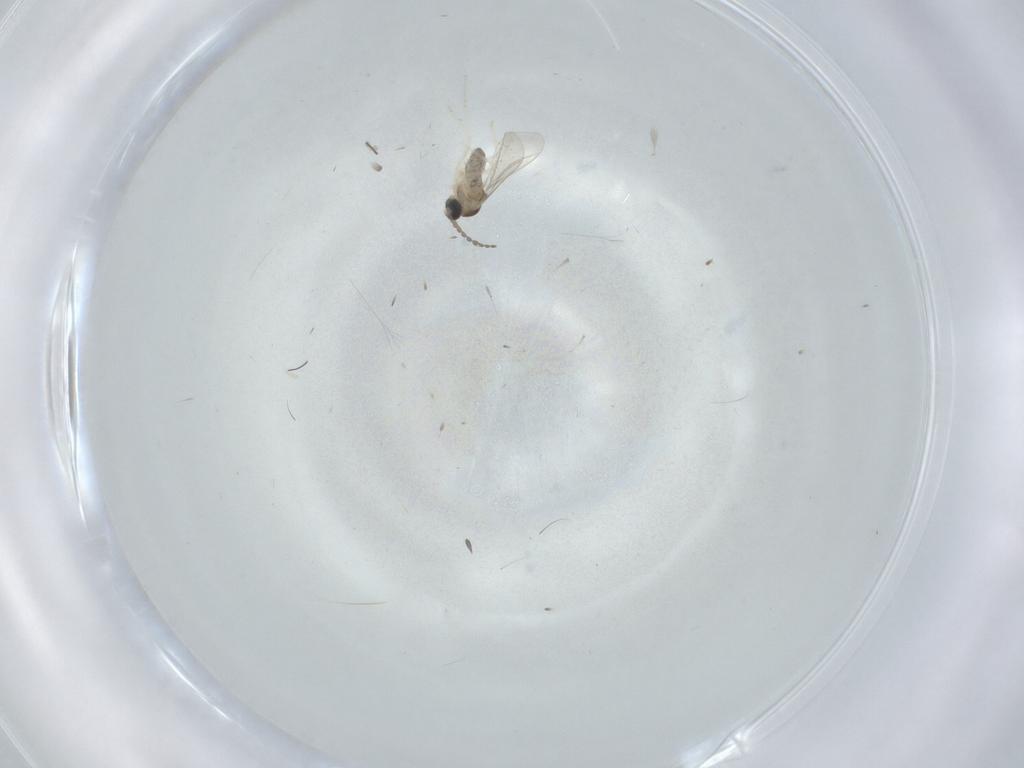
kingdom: Animalia
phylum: Arthropoda
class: Insecta
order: Diptera
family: Cecidomyiidae
